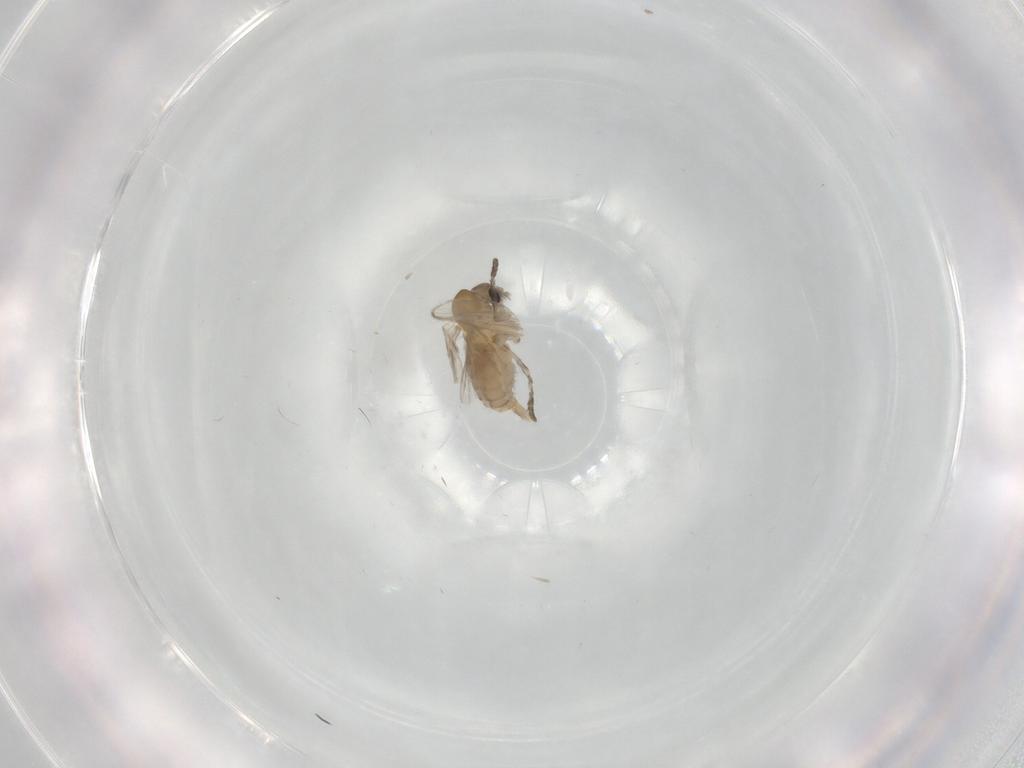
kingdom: Animalia
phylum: Arthropoda
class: Insecta
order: Diptera
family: Psychodidae
